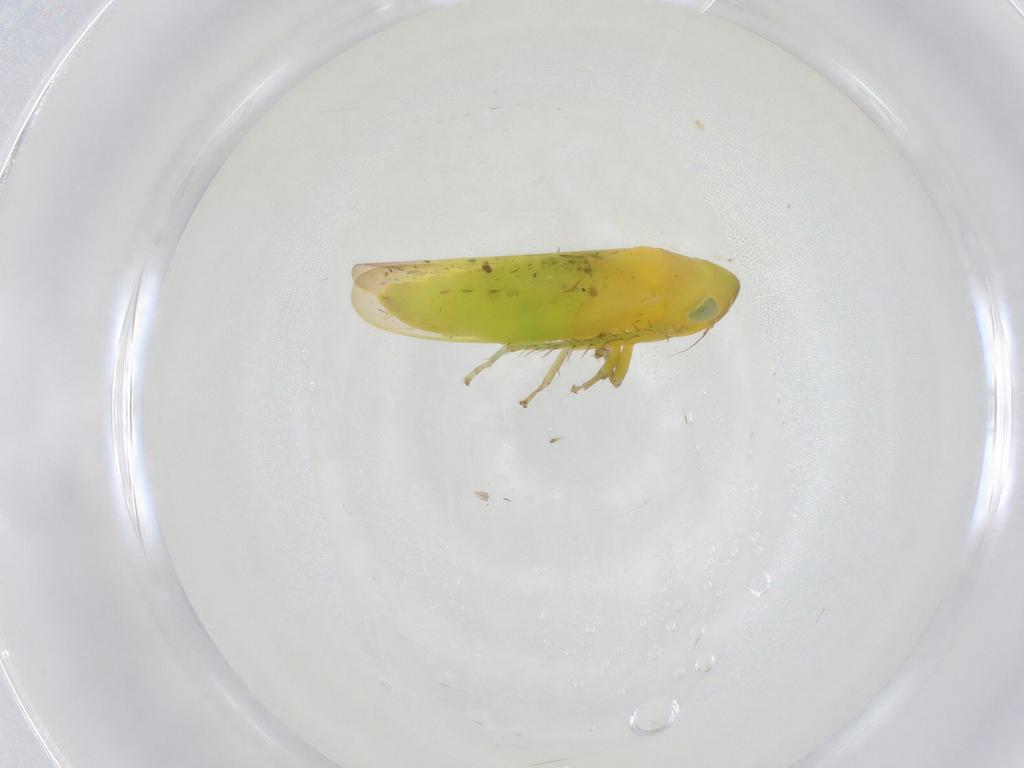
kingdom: Animalia
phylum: Arthropoda
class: Insecta
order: Hemiptera
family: Cicadellidae
